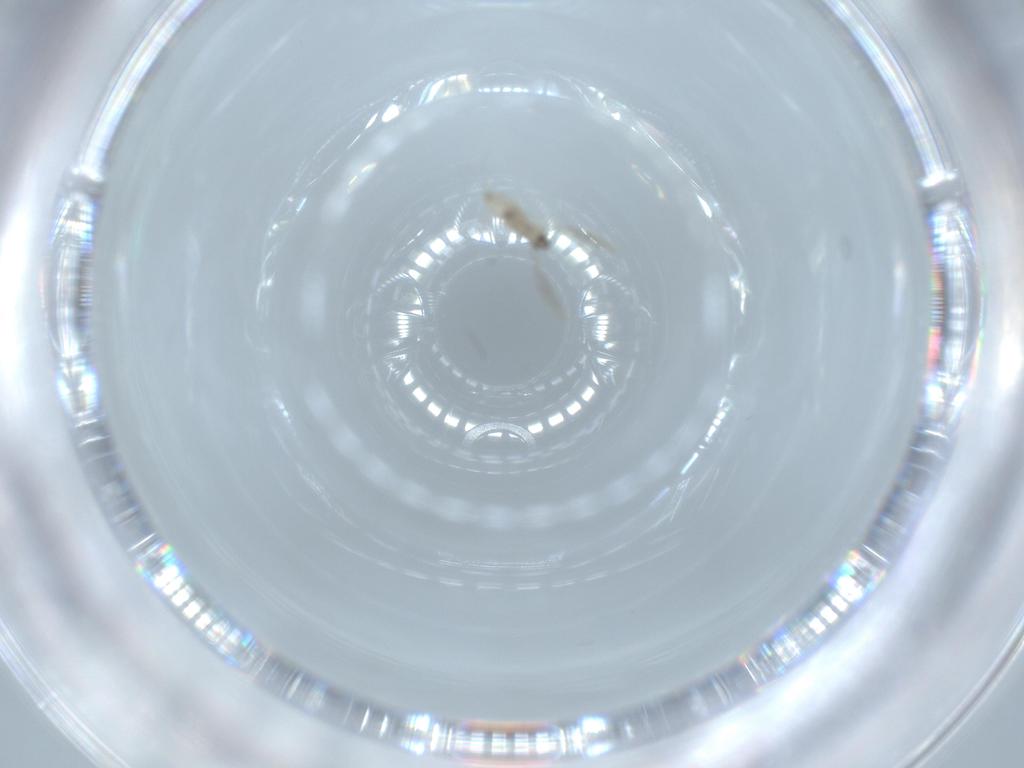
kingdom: Animalia
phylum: Arthropoda
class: Insecta
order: Diptera
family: Cecidomyiidae
